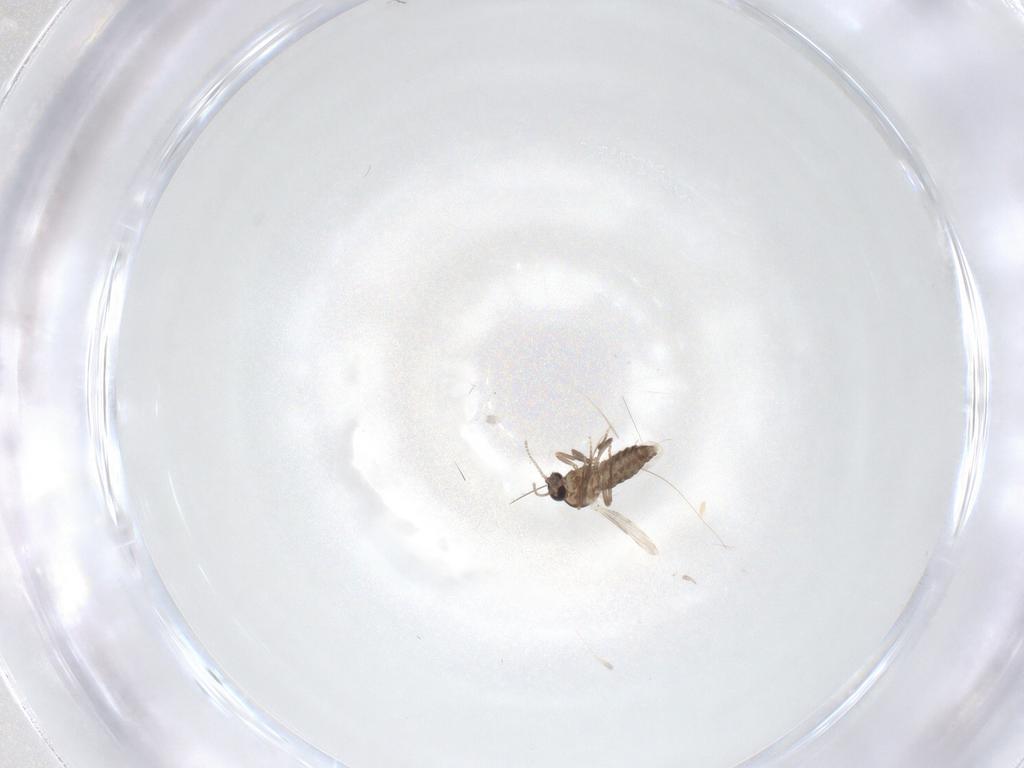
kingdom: Animalia
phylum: Arthropoda
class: Insecta
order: Diptera
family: Ceratopogonidae
